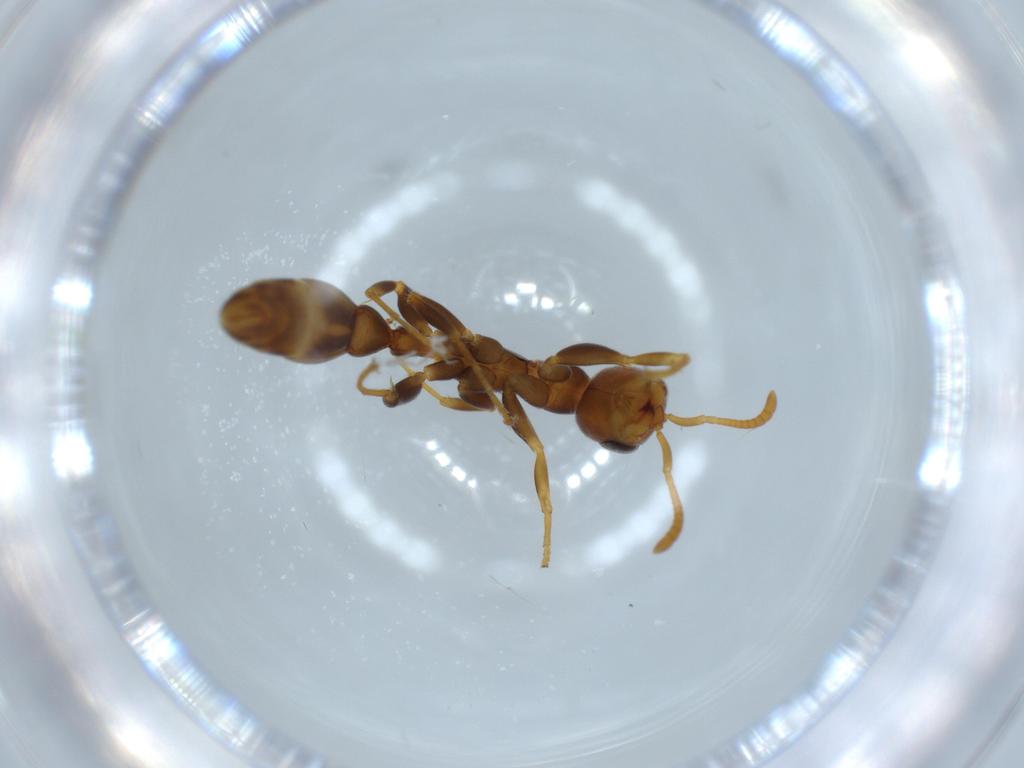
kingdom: Animalia
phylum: Arthropoda
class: Insecta
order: Hymenoptera
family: Formicidae
